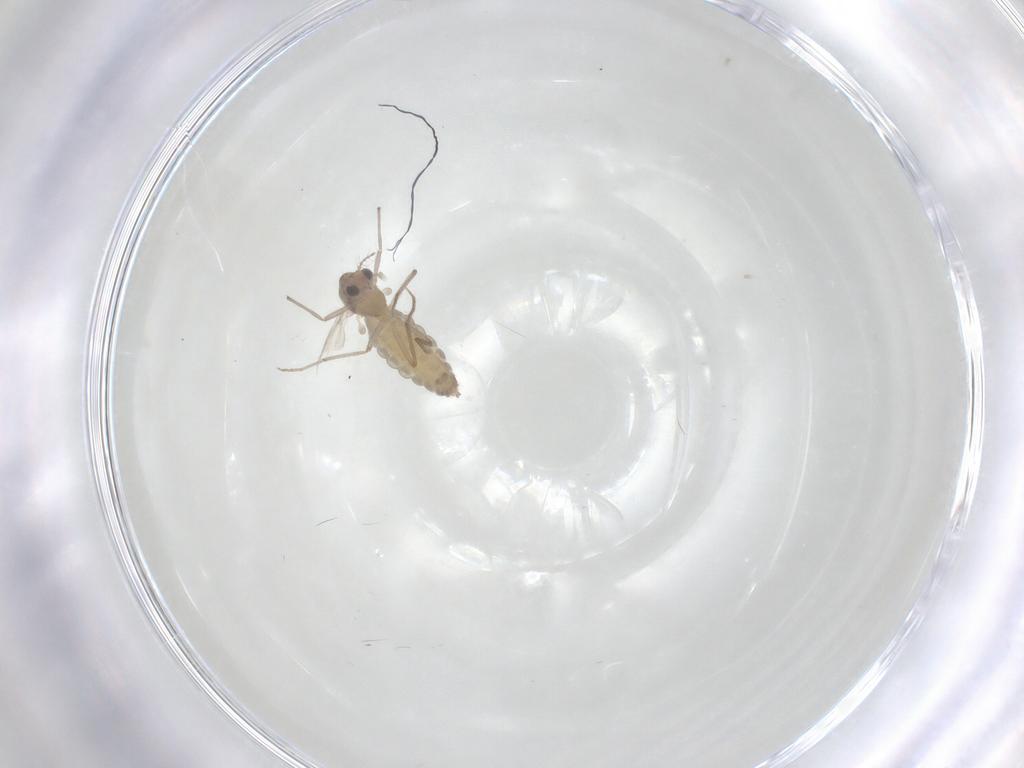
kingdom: Animalia
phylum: Arthropoda
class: Insecta
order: Diptera
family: Chironomidae
